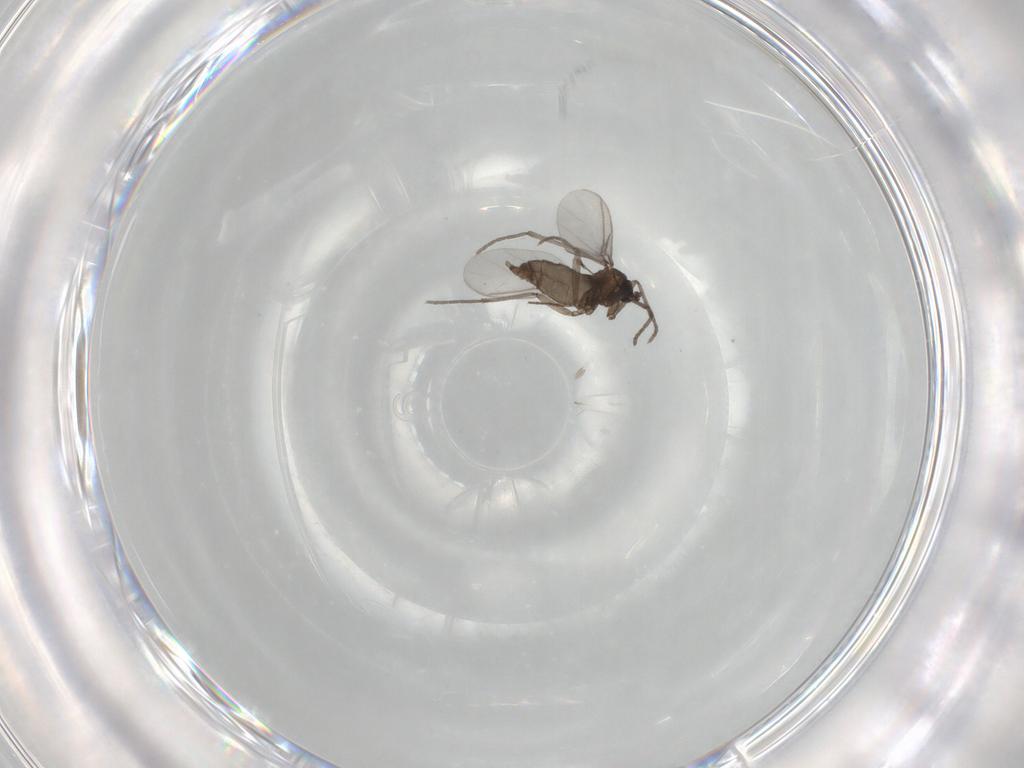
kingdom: Animalia
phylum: Arthropoda
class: Insecta
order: Diptera
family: Sciaridae
